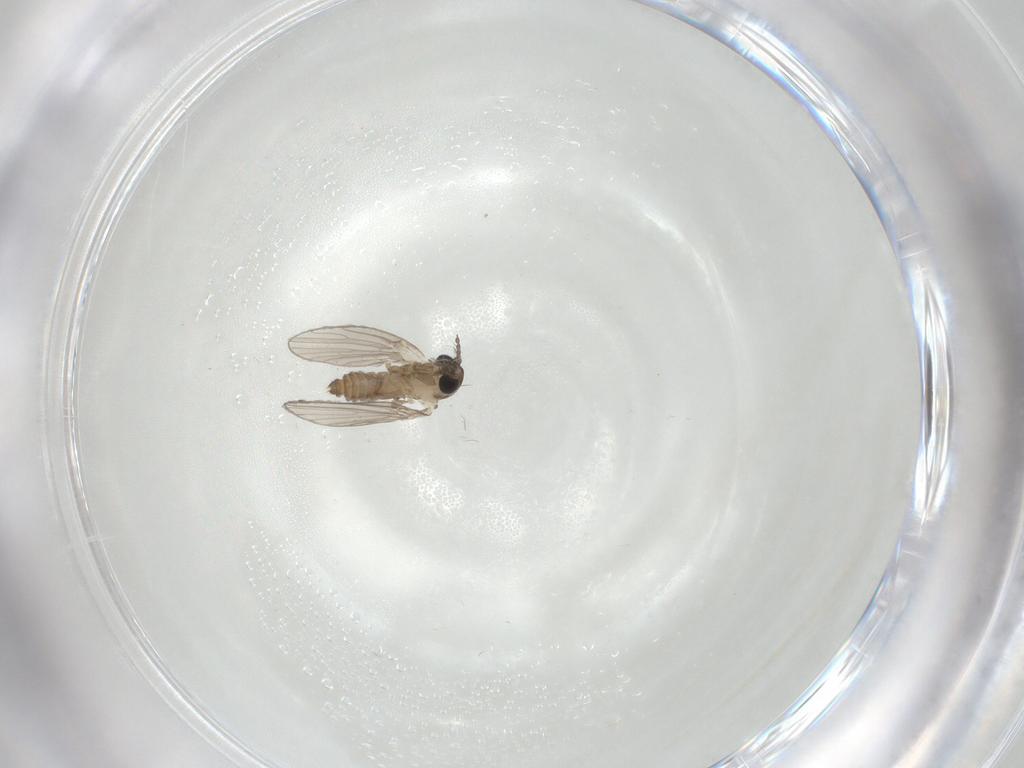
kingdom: Animalia
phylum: Arthropoda
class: Insecta
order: Diptera
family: Psychodidae
